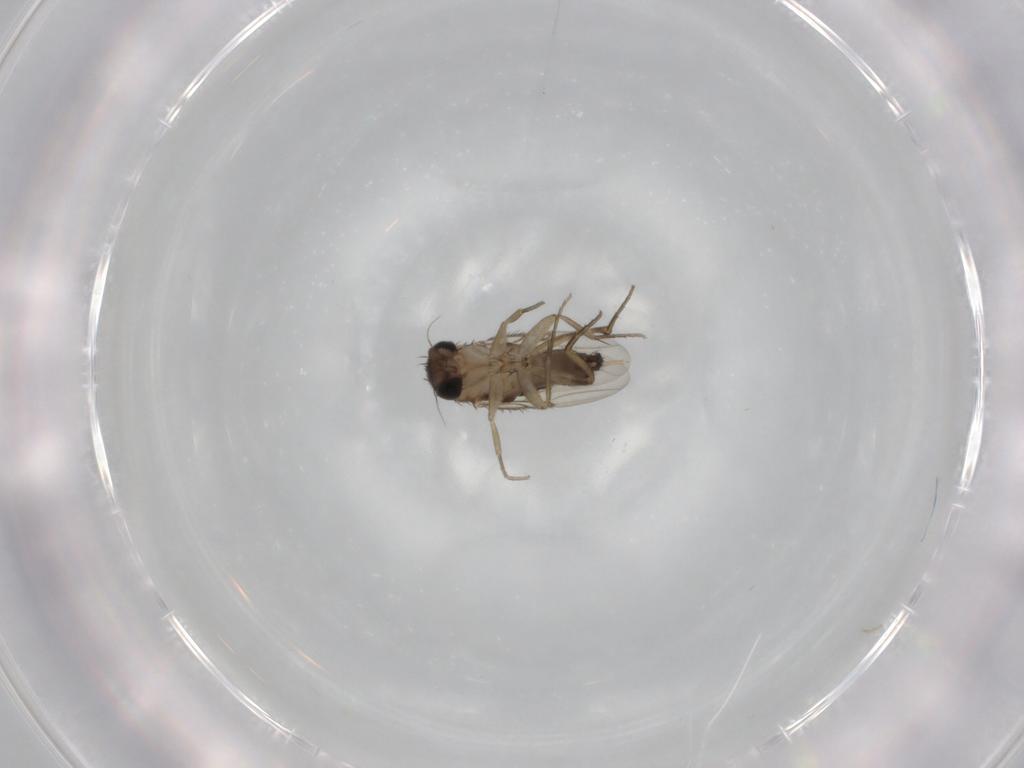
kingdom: Animalia
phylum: Arthropoda
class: Insecta
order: Diptera
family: Phoridae
